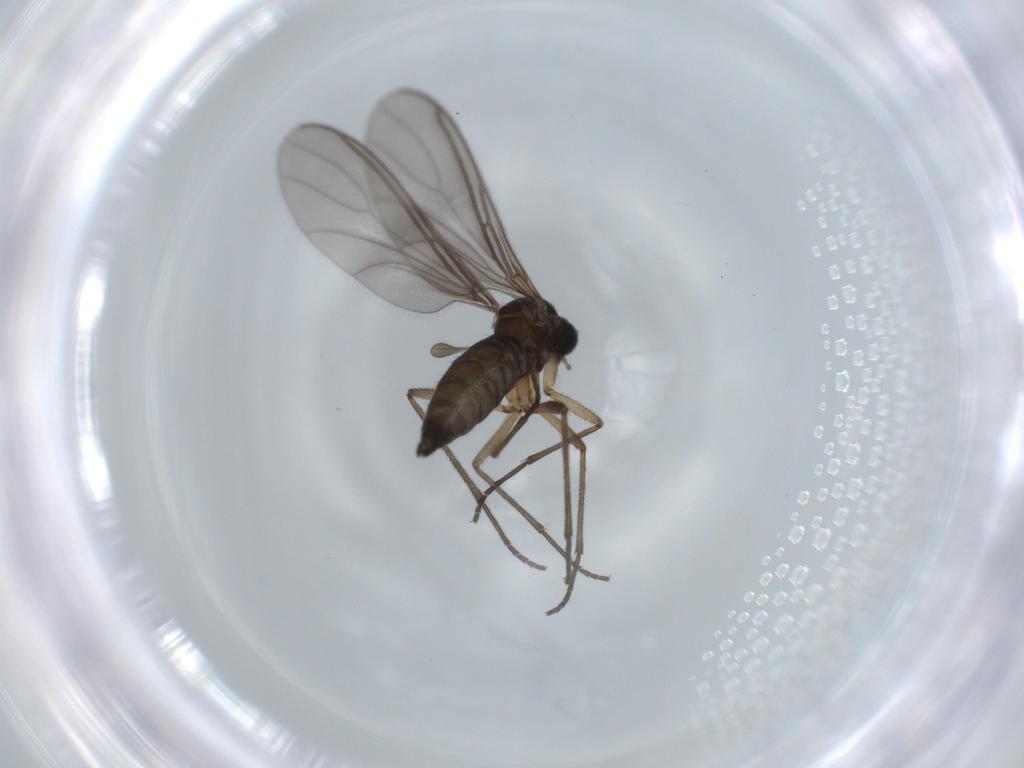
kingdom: Animalia
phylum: Arthropoda
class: Insecta
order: Diptera
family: Sciaridae
